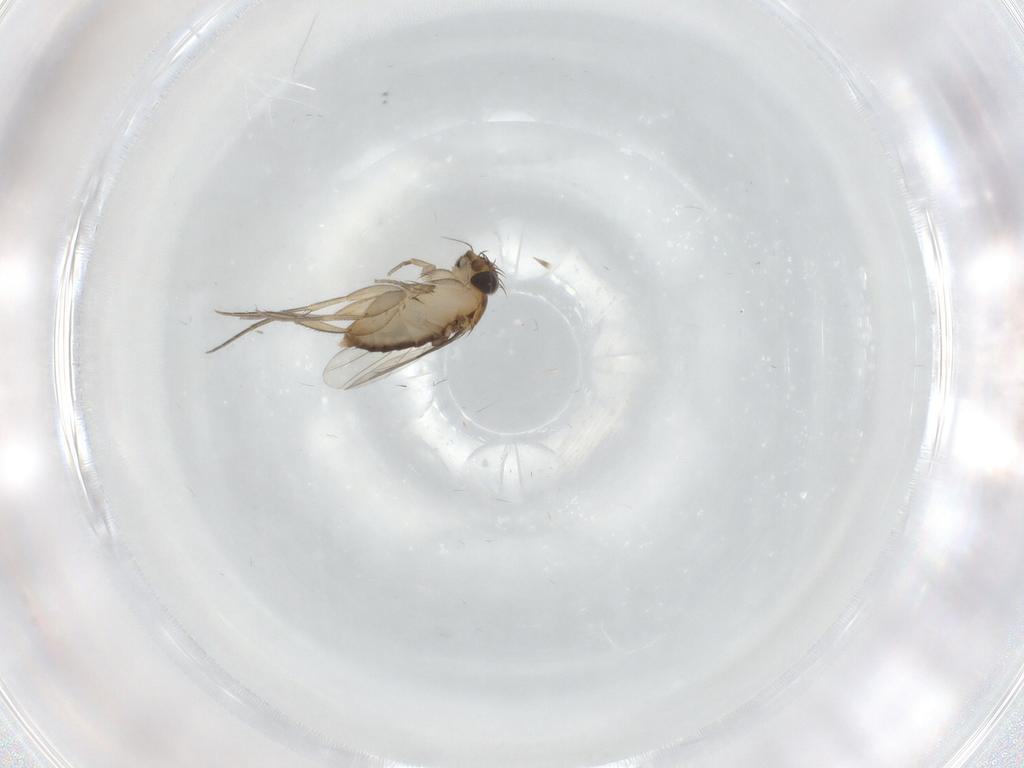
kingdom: Animalia
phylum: Arthropoda
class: Insecta
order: Diptera
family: Phoridae
